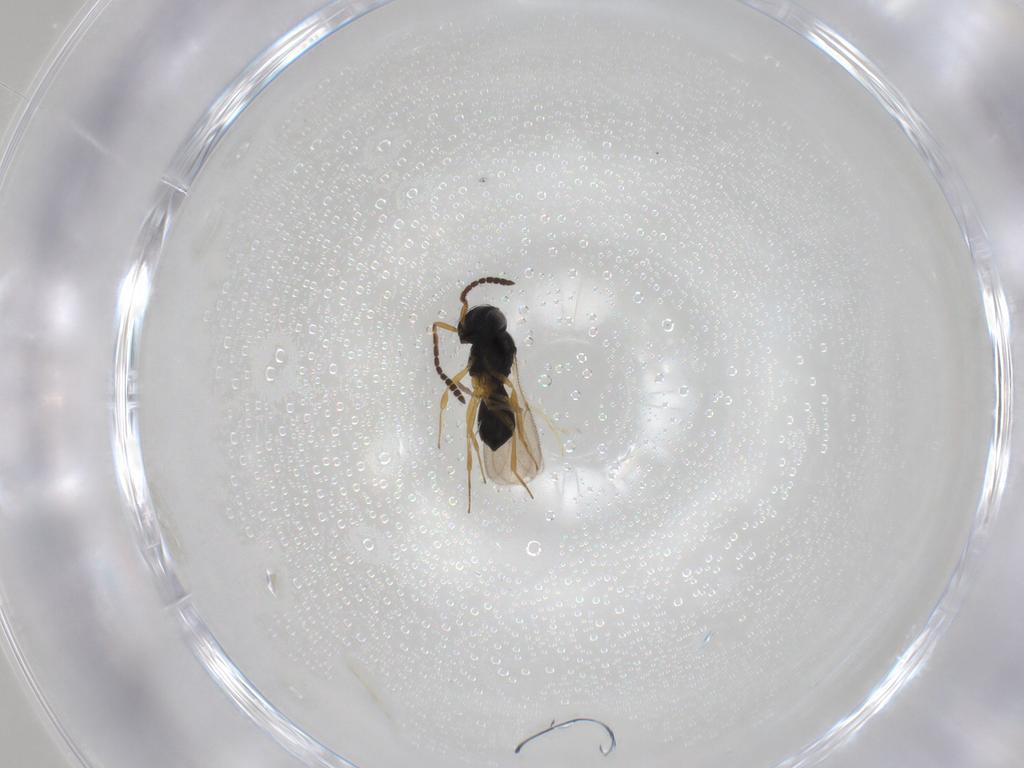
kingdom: Animalia
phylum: Arthropoda
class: Insecta
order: Hymenoptera
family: Scelionidae
